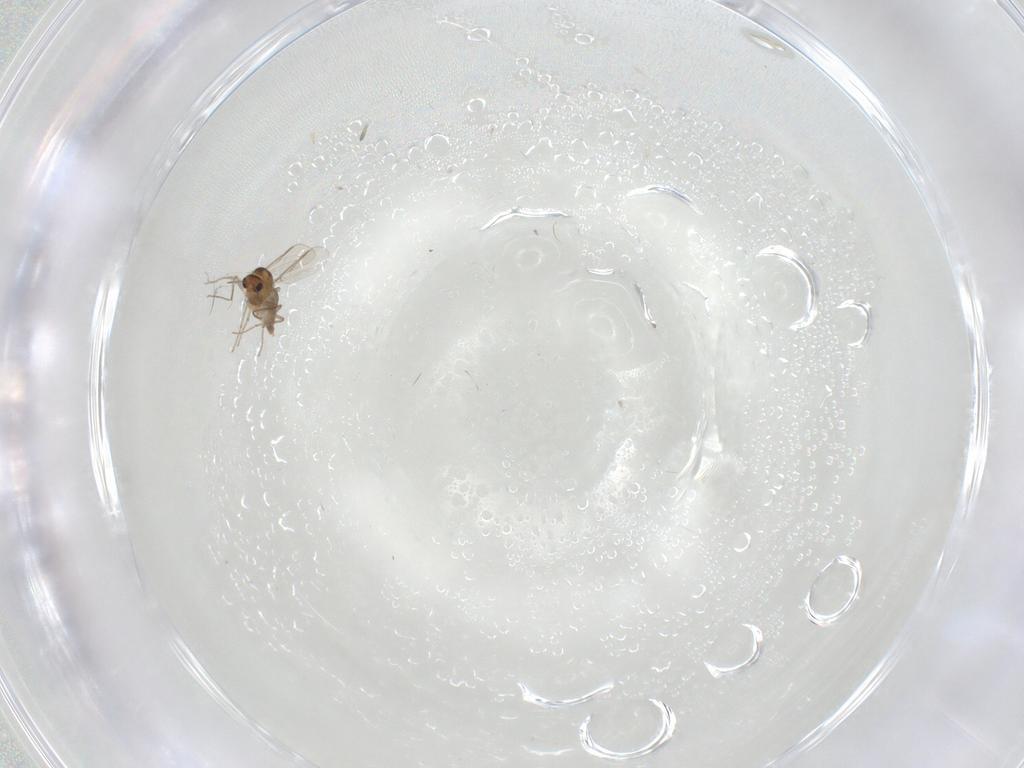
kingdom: Animalia
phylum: Arthropoda
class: Insecta
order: Diptera
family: Phoridae
